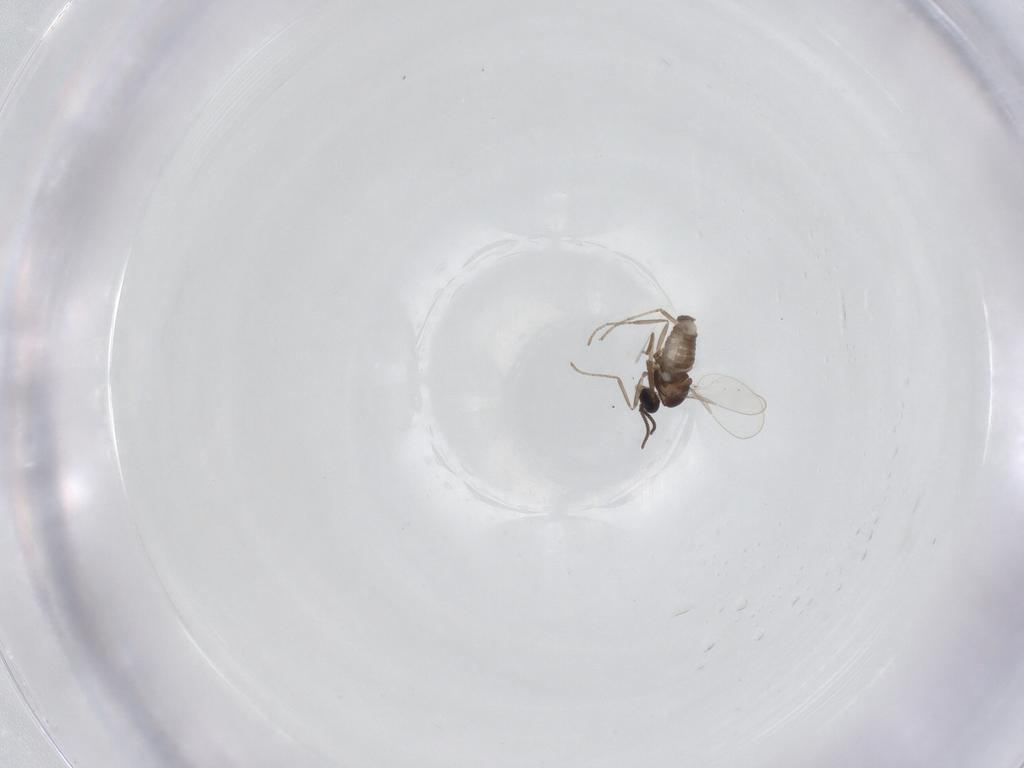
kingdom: Animalia
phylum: Arthropoda
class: Insecta
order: Diptera
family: Cecidomyiidae
